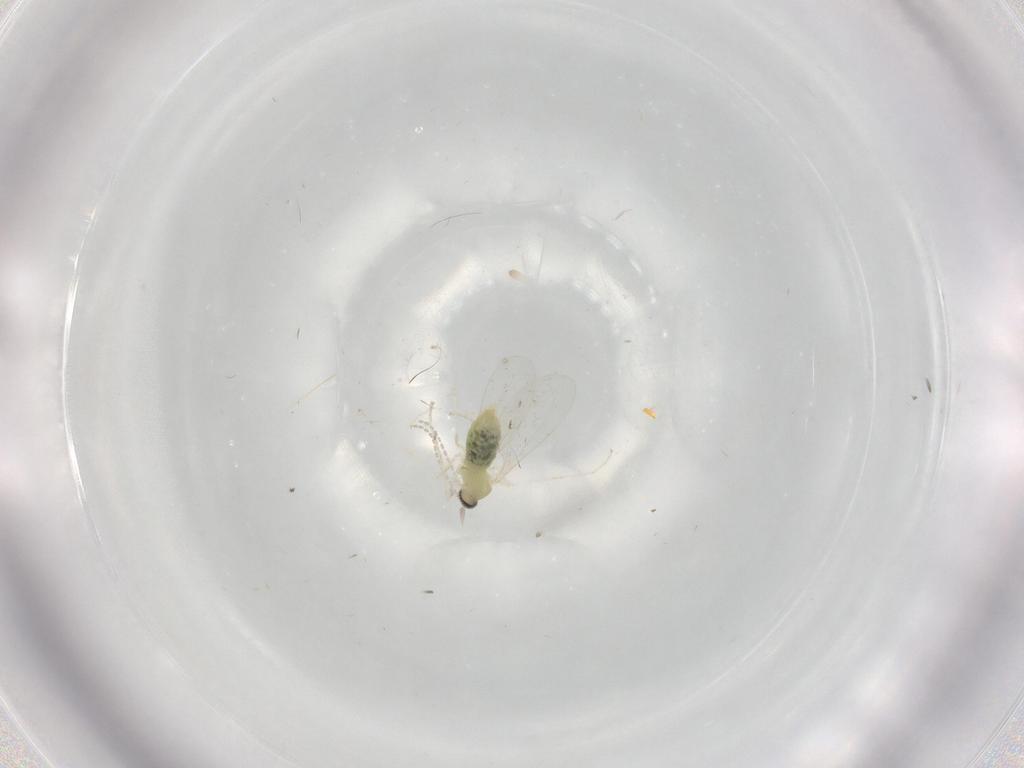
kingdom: Animalia
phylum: Arthropoda
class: Insecta
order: Diptera
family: Cecidomyiidae
